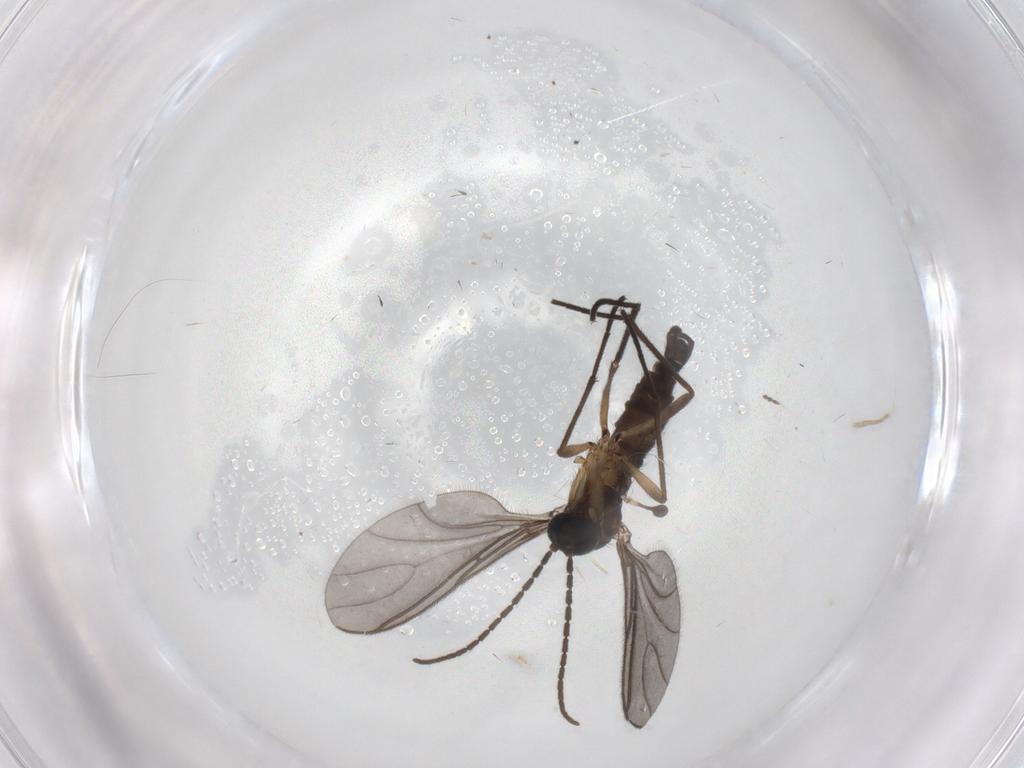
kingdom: Animalia
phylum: Arthropoda
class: Insecta
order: Diptera
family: Sciaridae
